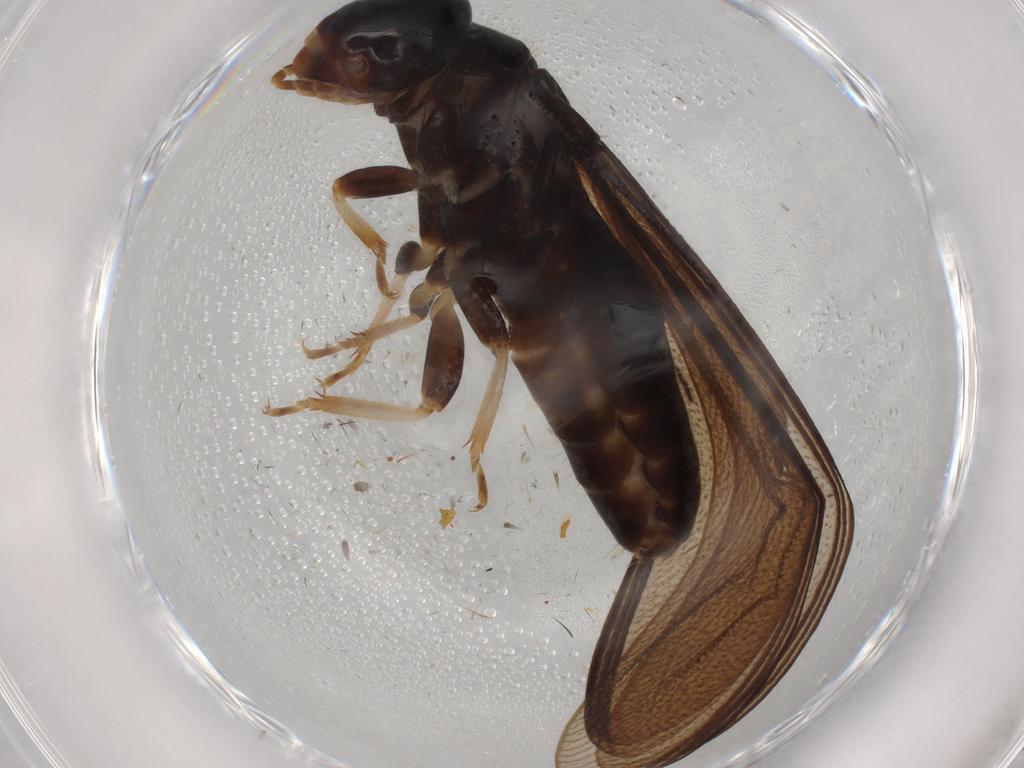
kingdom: Animalia
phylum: Arthropoda
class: Insecta
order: Blattodea
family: Kalotermitidae
